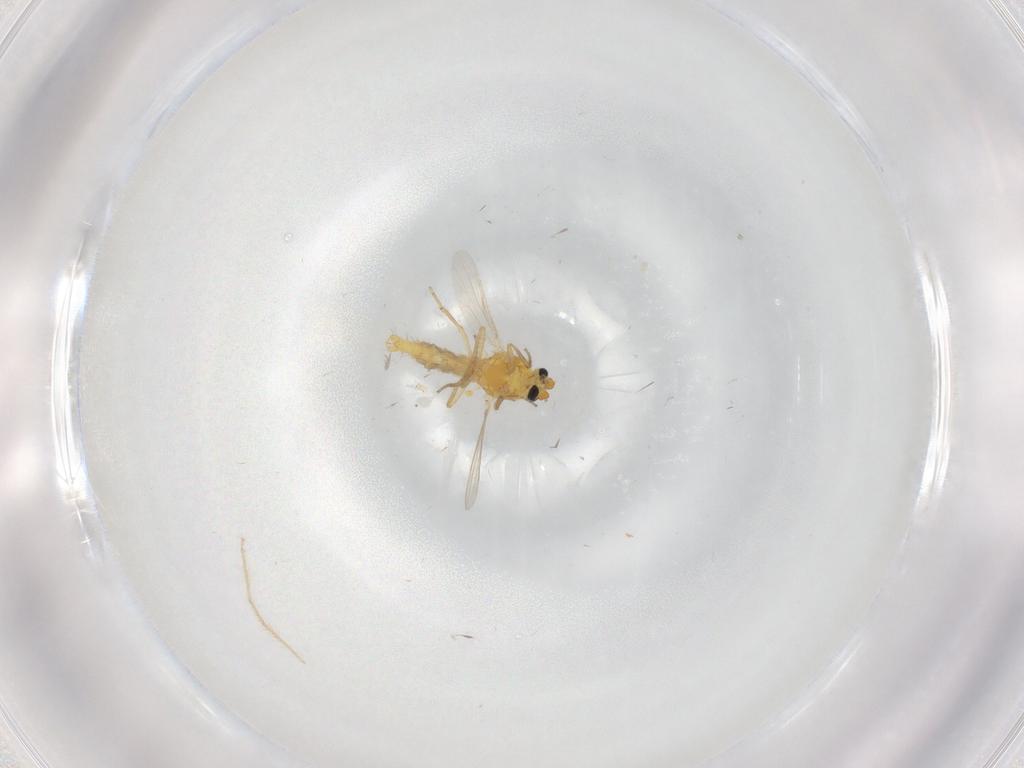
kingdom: Animalia
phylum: Arthropoda
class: Insecta
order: Diptera
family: Ceratopogonidae
